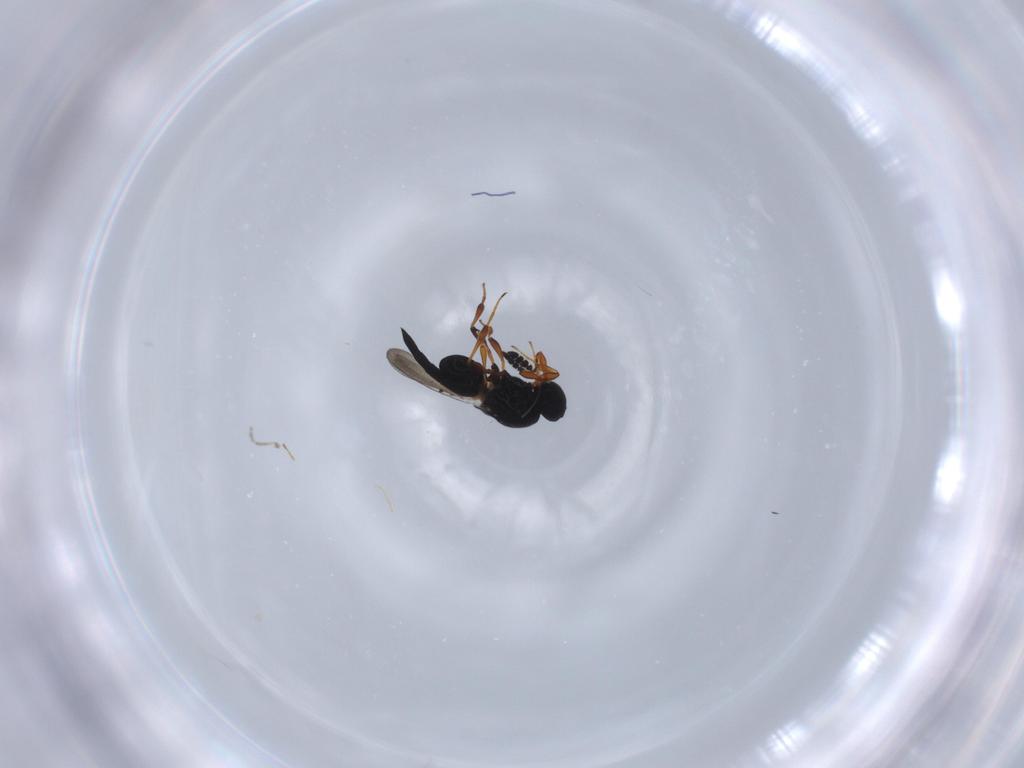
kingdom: Animalia
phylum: Arthropoda
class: Insecta
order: Hymenoptera
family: Platygastridae
